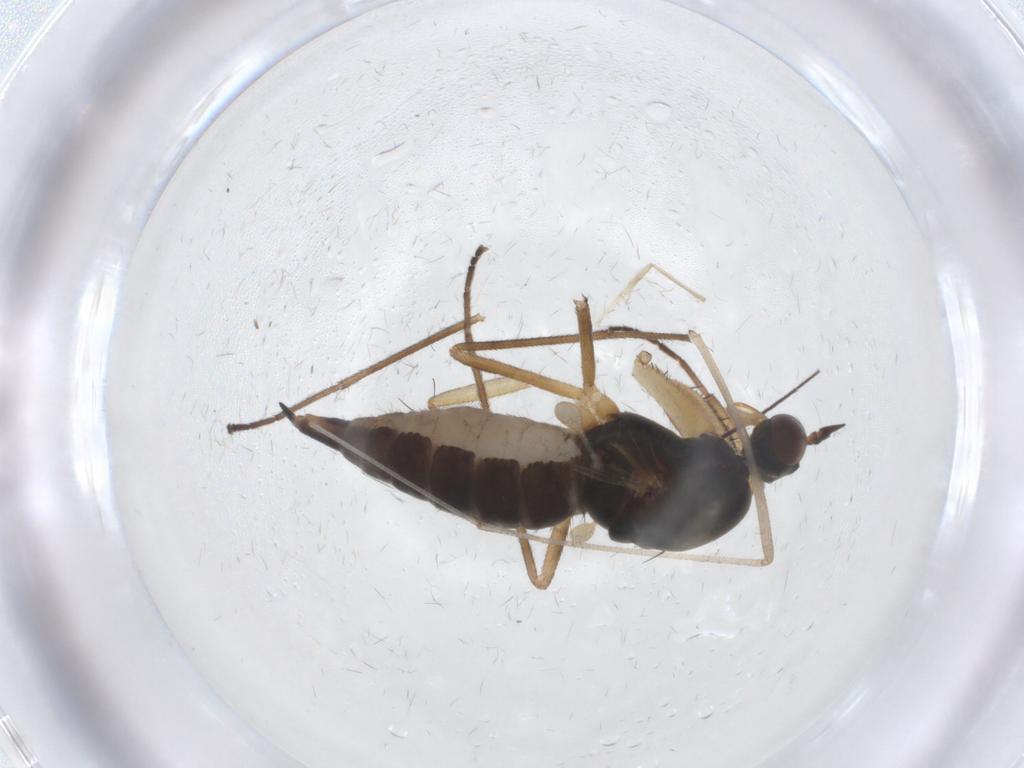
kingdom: Animalia
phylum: Arthropoda
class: Insecta
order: Diptera
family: Empididae
